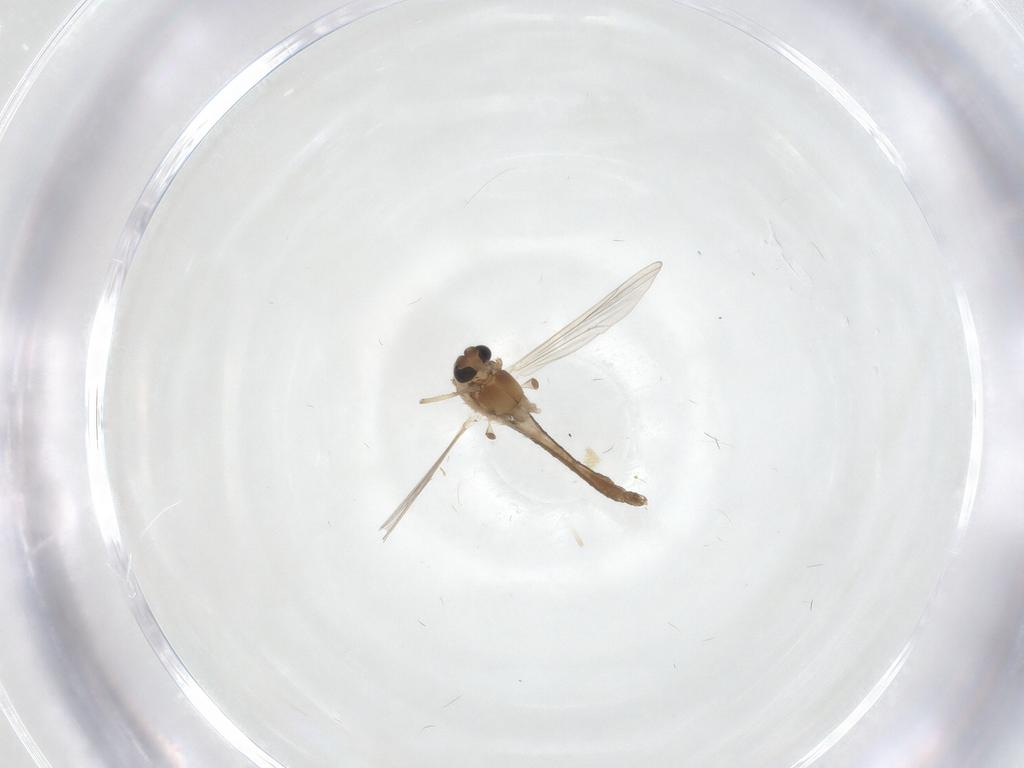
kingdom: Animalia
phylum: Arthropoda
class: Insecta
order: Diptera
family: Chironomidae
